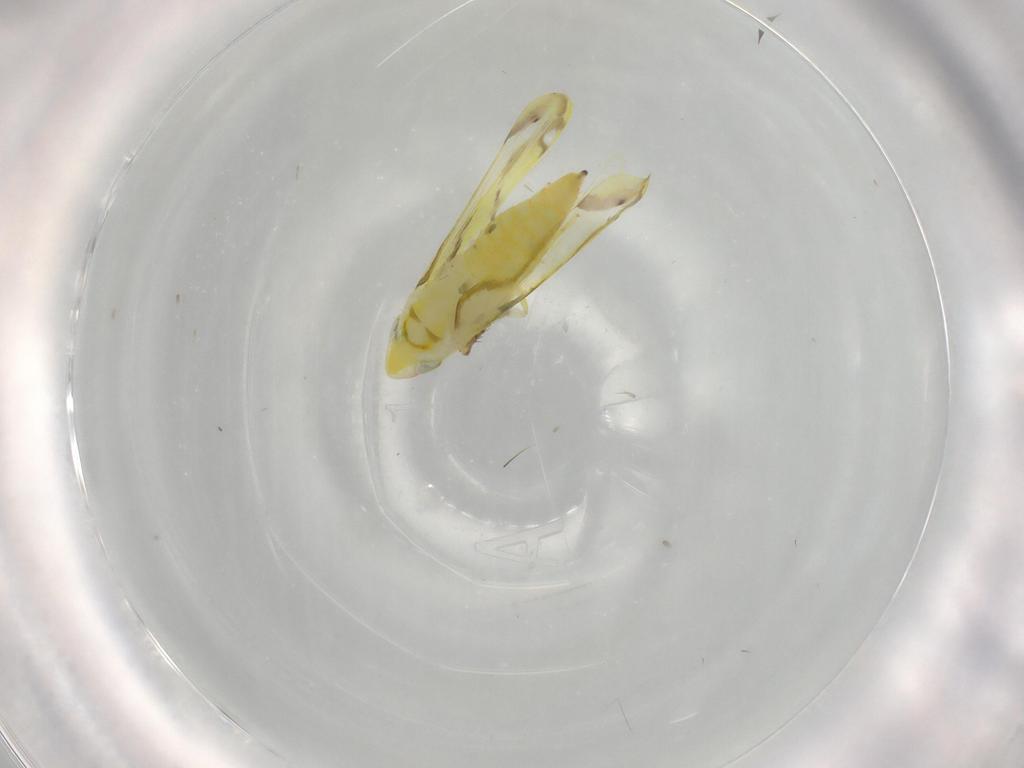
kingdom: Animalia
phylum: Arthropoda
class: Insecta
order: Hemiptera
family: Cicadellidae
